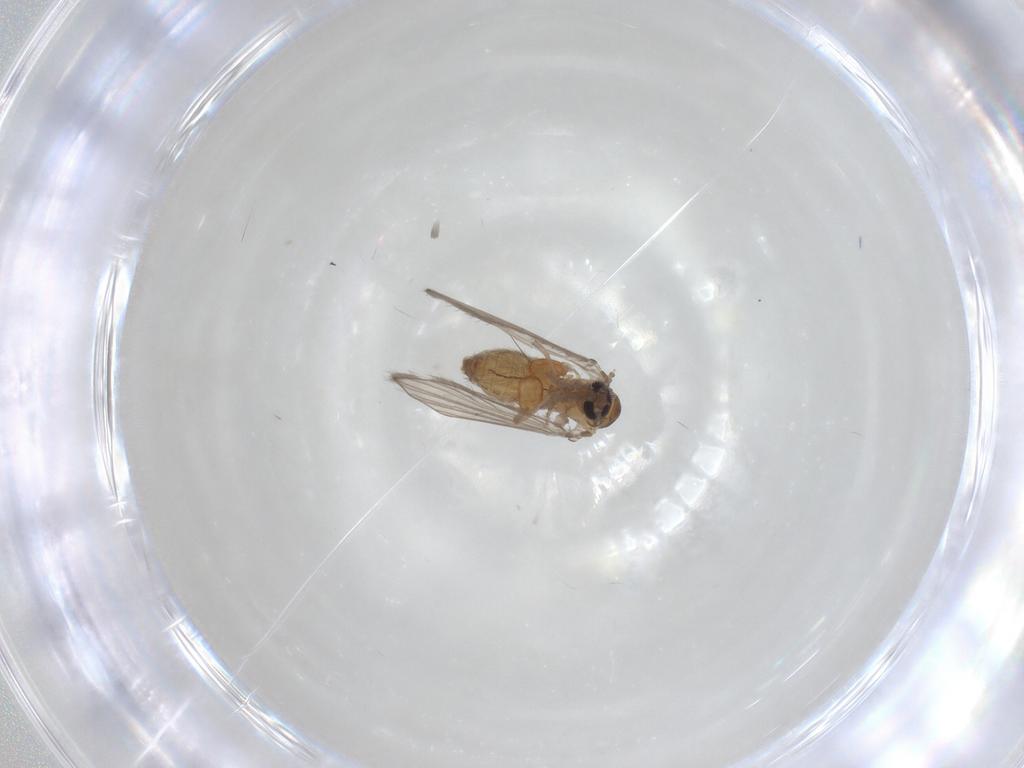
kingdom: Animalia
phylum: Arthropoda
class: Insecta
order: Diptera
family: Psychodidae
